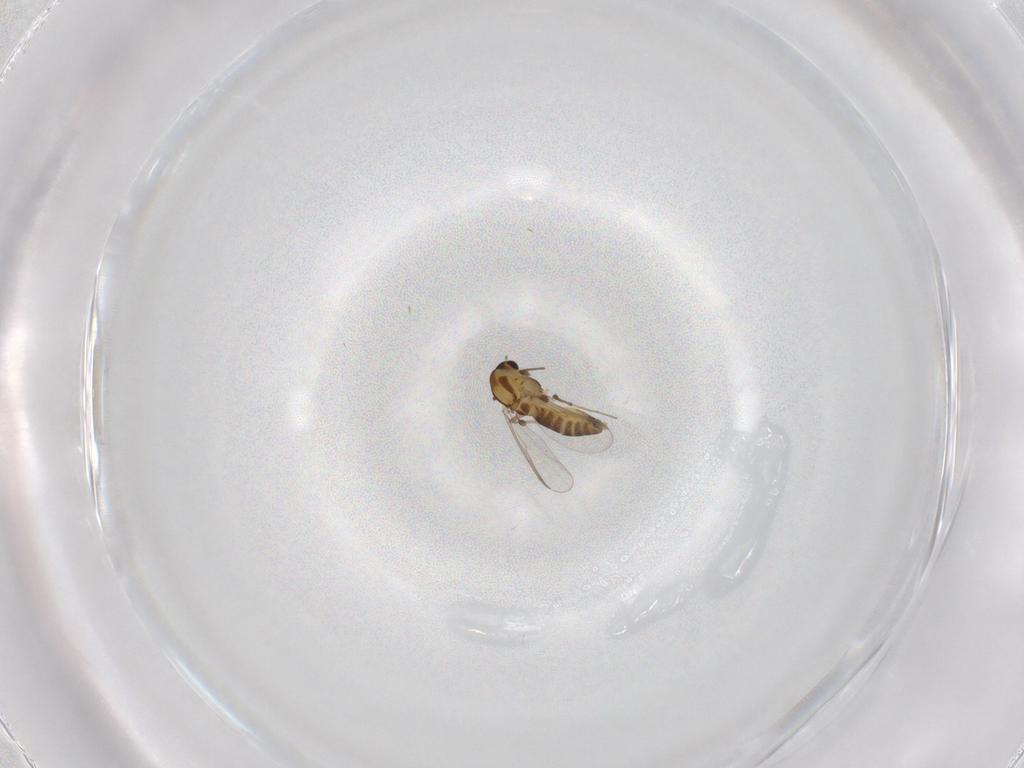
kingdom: Animalia
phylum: Arthropoda
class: Insecta
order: Diptera
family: Chironomidae
